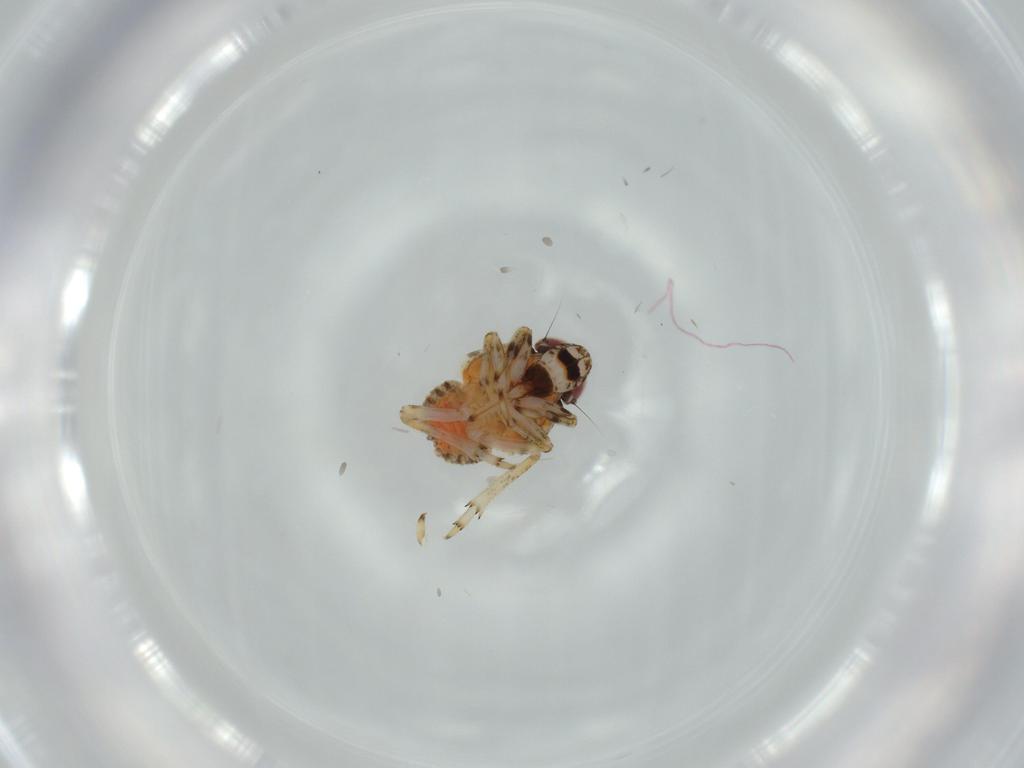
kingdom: Animalia
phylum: Arthropoda
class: Insecta
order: Hemiptera
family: Issidae
